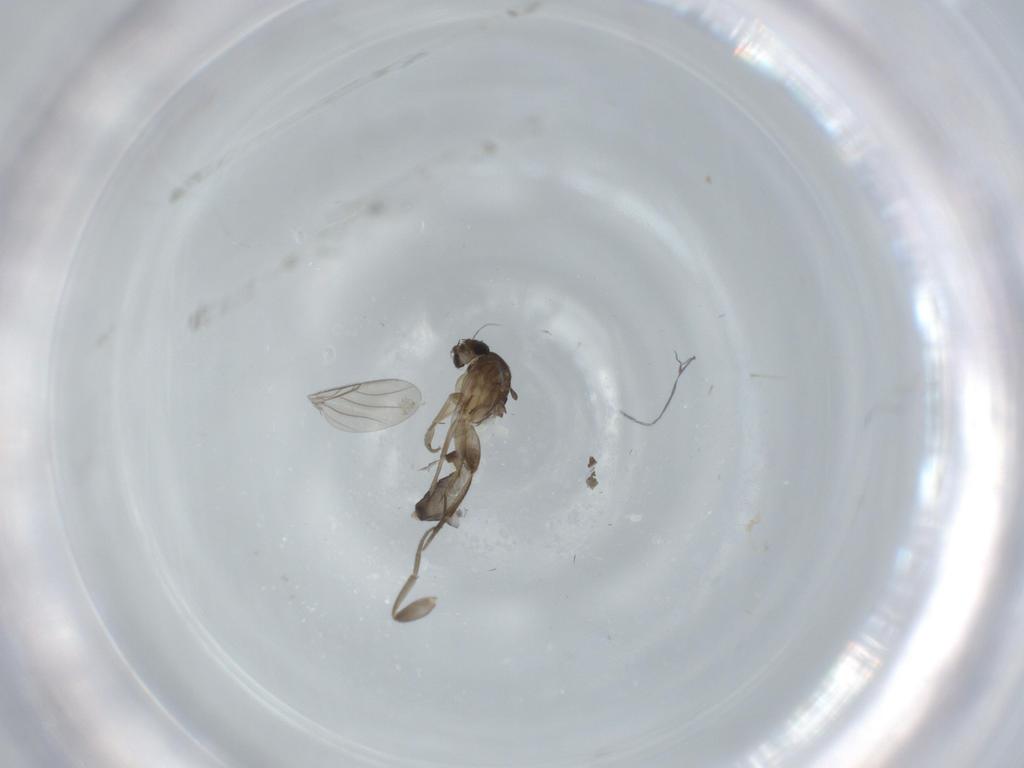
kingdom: Animalia
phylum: Arthropoda
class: Insecta
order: Diptera
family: Phoridae
